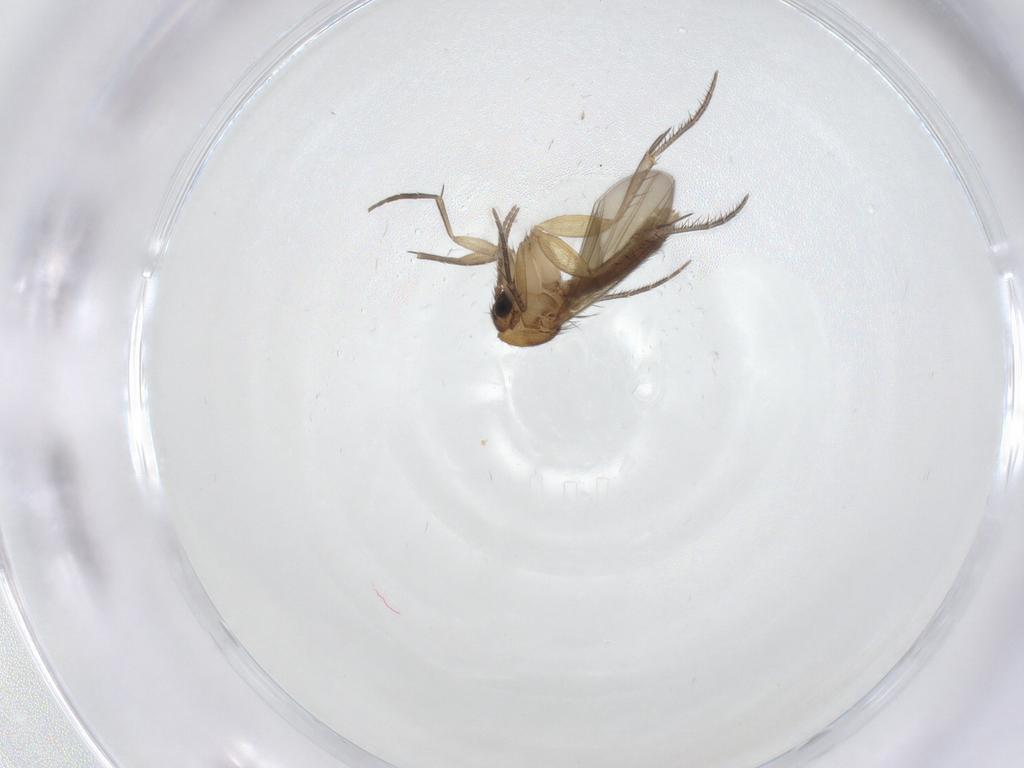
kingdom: Animalia
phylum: Arthropoda
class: Insecta
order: Diptera
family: Mycetophilidae
